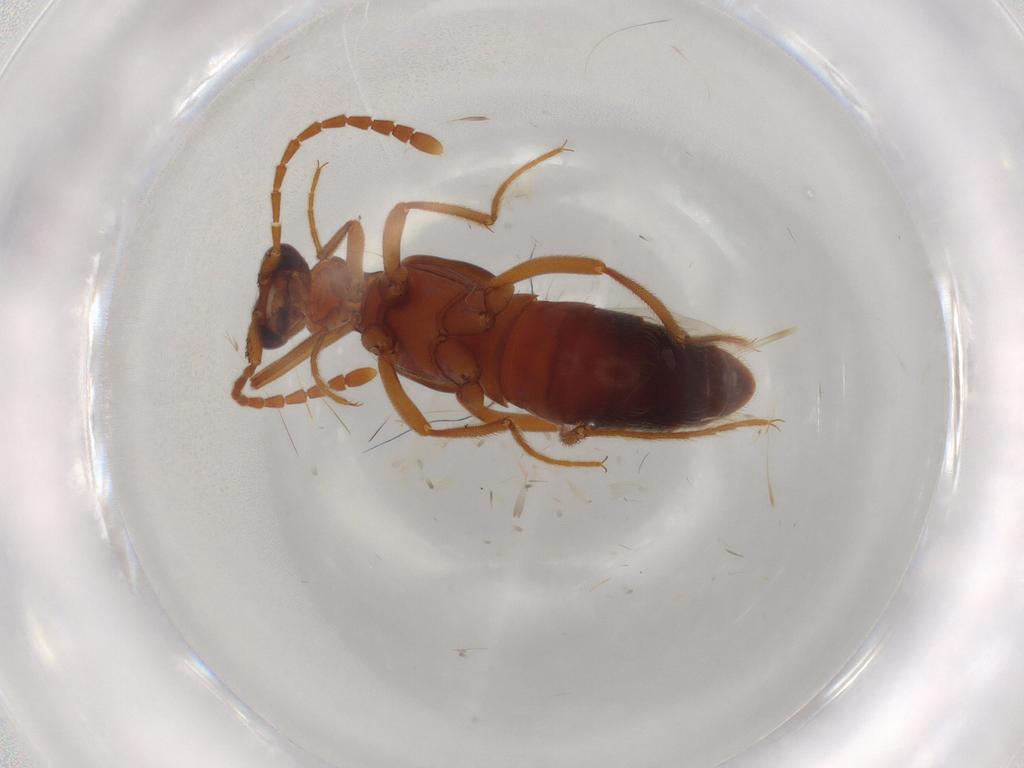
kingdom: Animalia
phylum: Arthropoda
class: Insecta
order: Coleoptera
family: Staphylinidae
